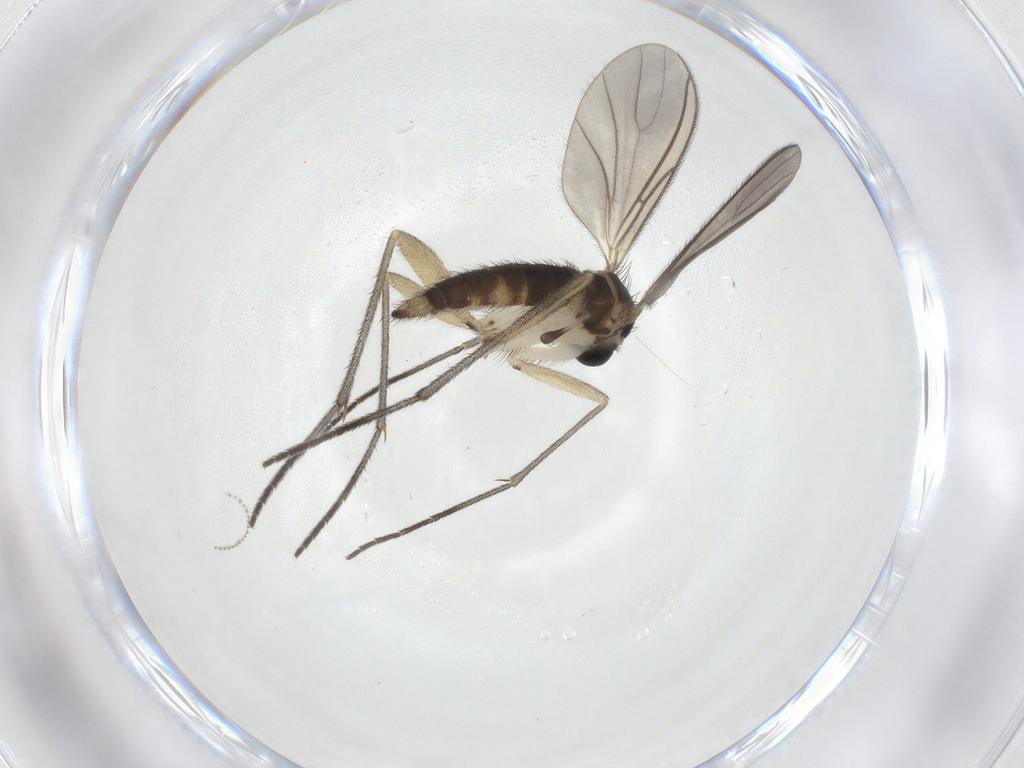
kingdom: Animalia
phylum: Arthropoda
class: Insecta
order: Diptera
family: Sciaridae
